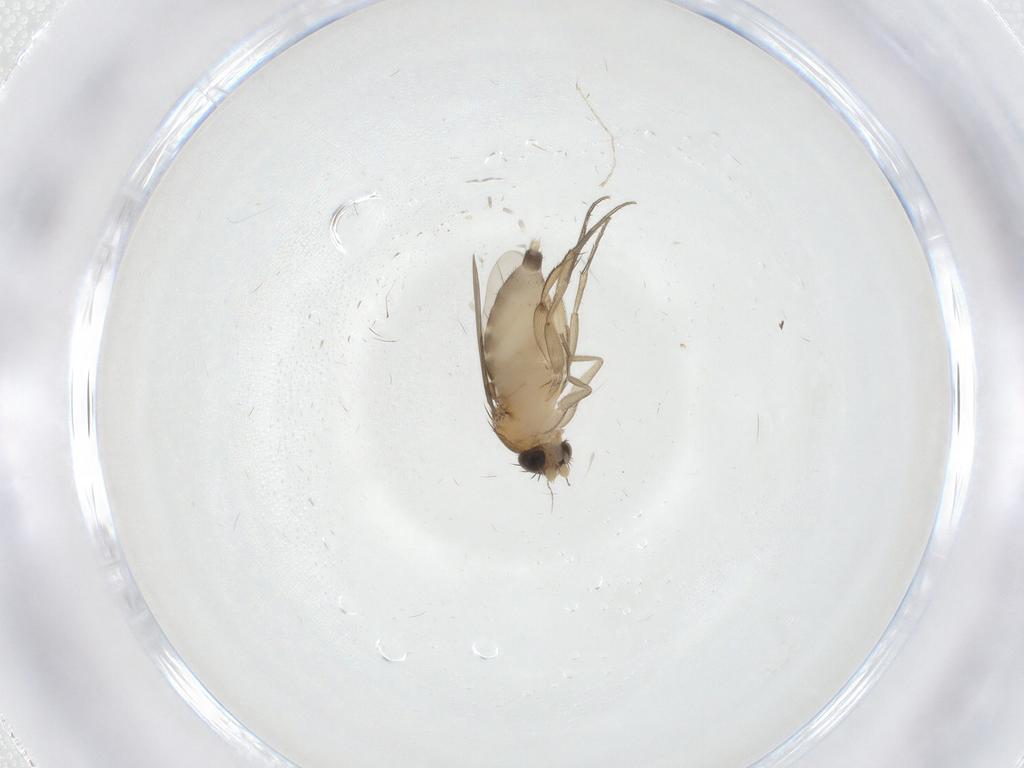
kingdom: Animalia
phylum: Arthropoda
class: Insecta
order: Diptera
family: Phoridae
